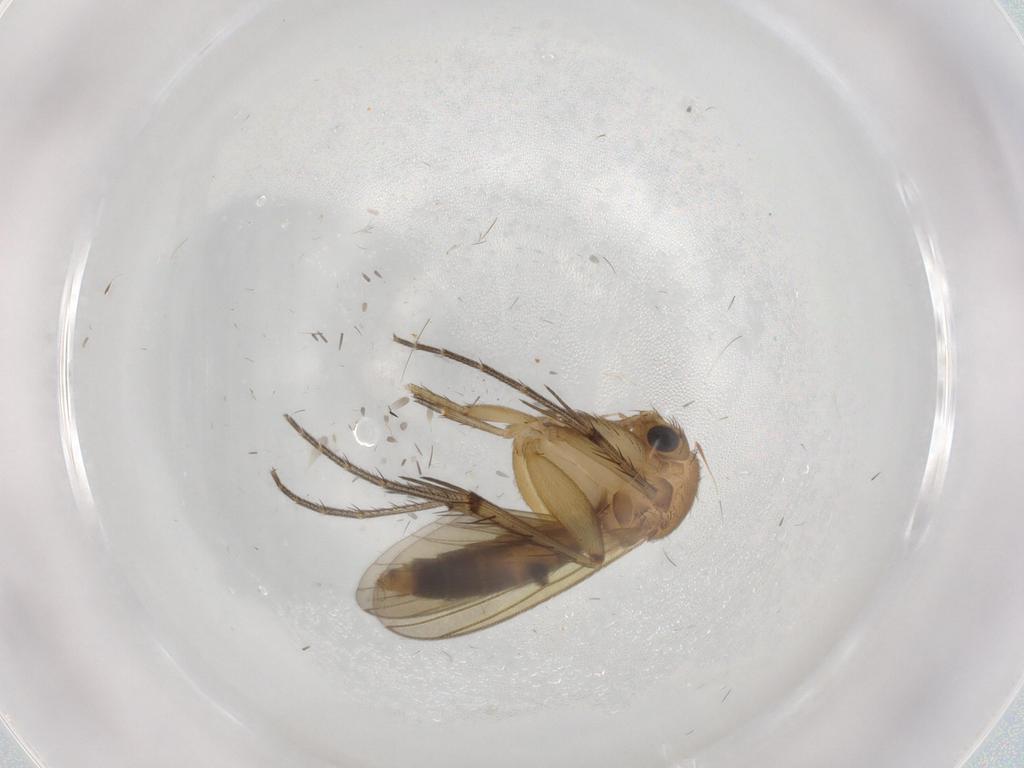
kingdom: Animalia
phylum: Arthropoda
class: Insecta
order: Diptera
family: Mycetophilidae
